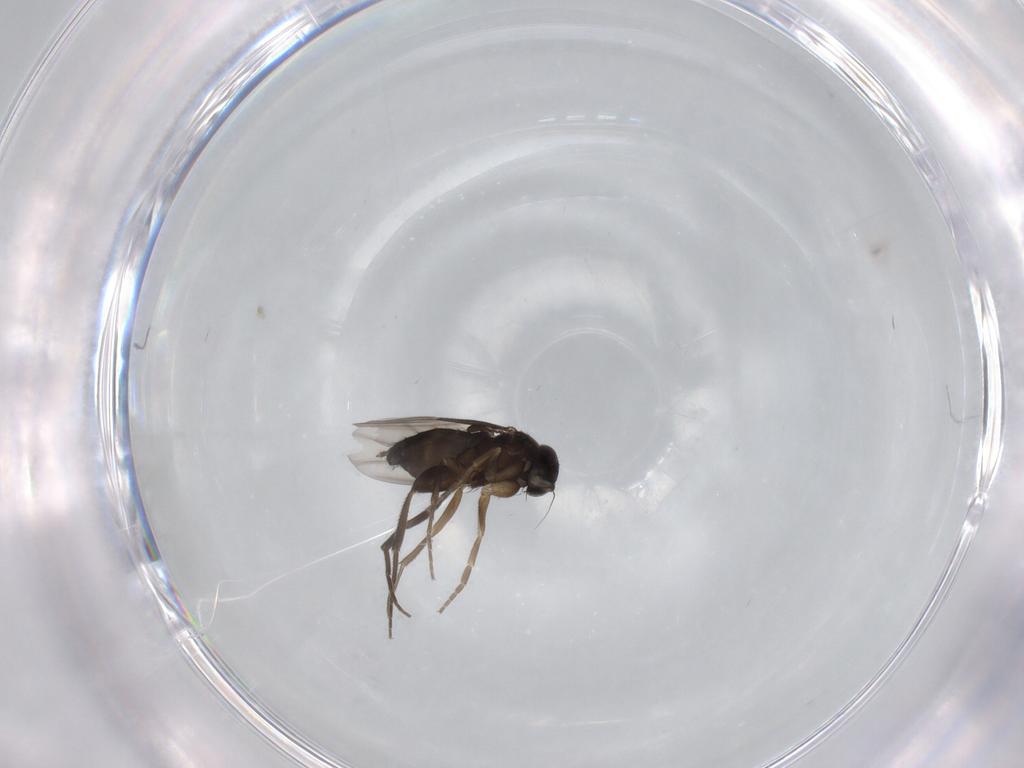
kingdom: Animalia
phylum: Arthropoda
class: Insecta
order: Diptera
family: Phoridae
